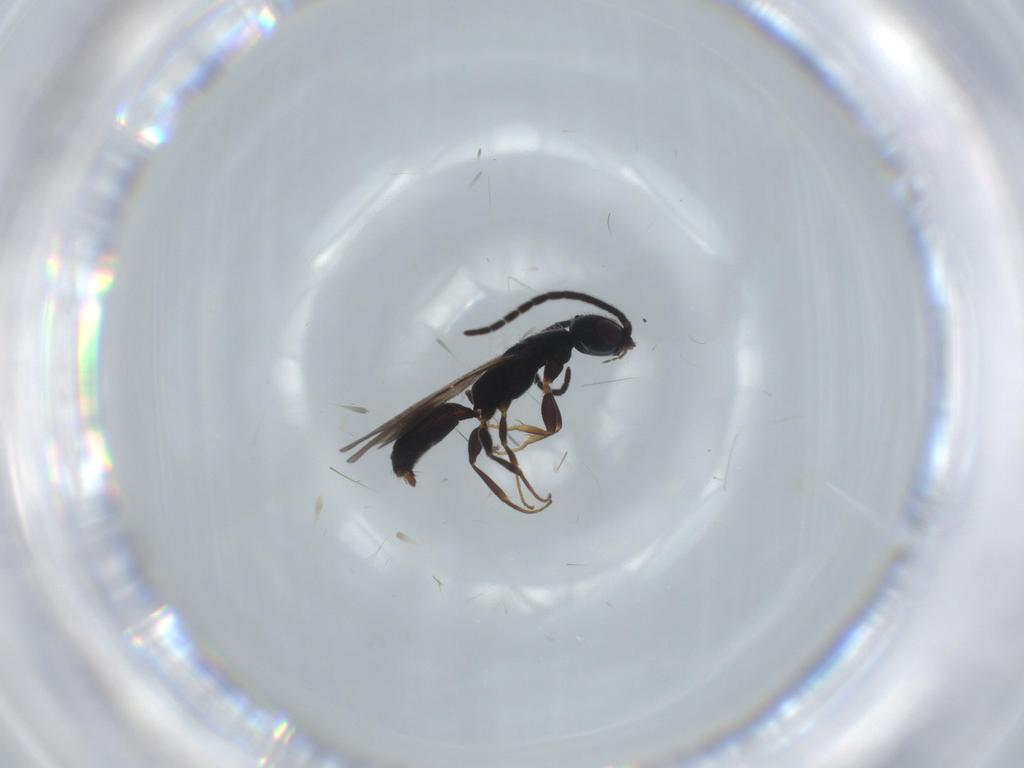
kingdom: Animalia
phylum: Arthropoda
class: Insecta
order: Hymenoptera
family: Bethylidae
